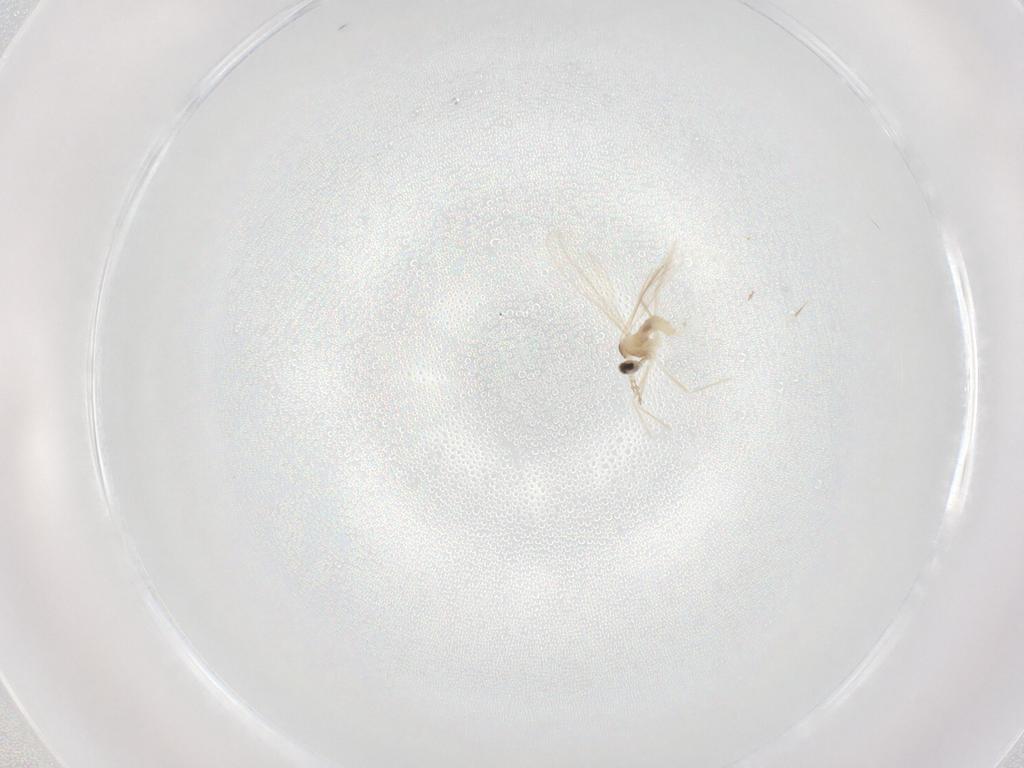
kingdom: Animalia
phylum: Arthropoda
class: Insecta
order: Diptera
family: Cecidomyiidae
